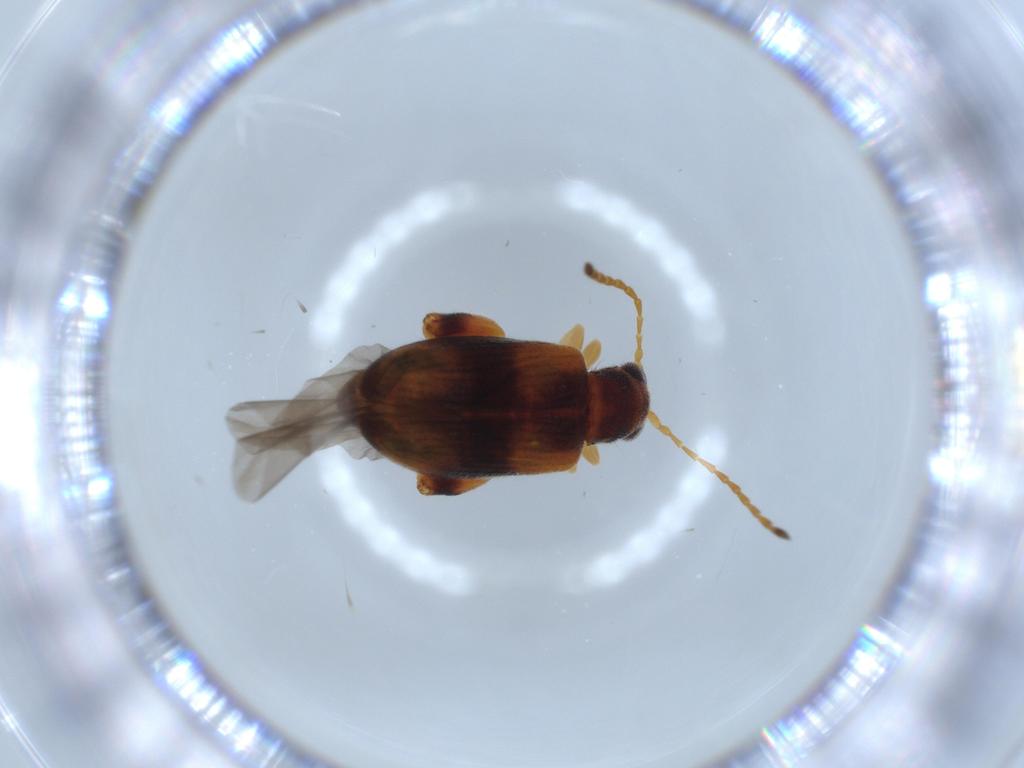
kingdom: Animalia
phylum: Arthropoda
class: Insecta
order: Coleoptera
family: Chrysomelidae
